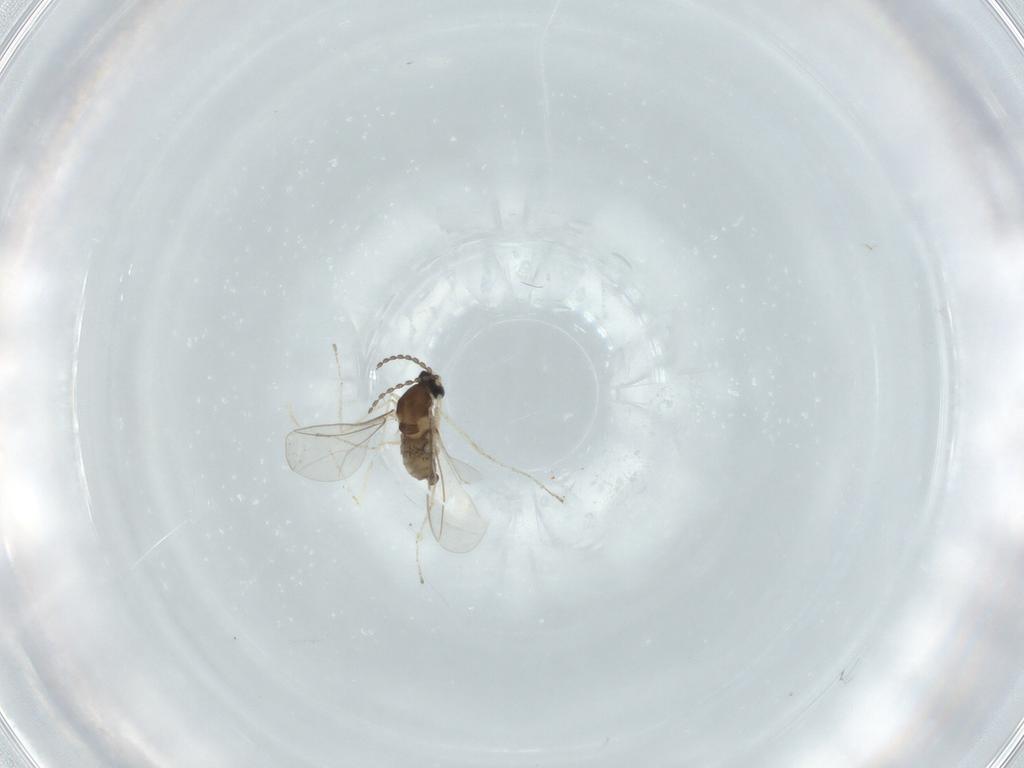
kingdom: Animalia
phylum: Arthropoda
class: Insecta
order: Diptera
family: Cecidomyiidae
